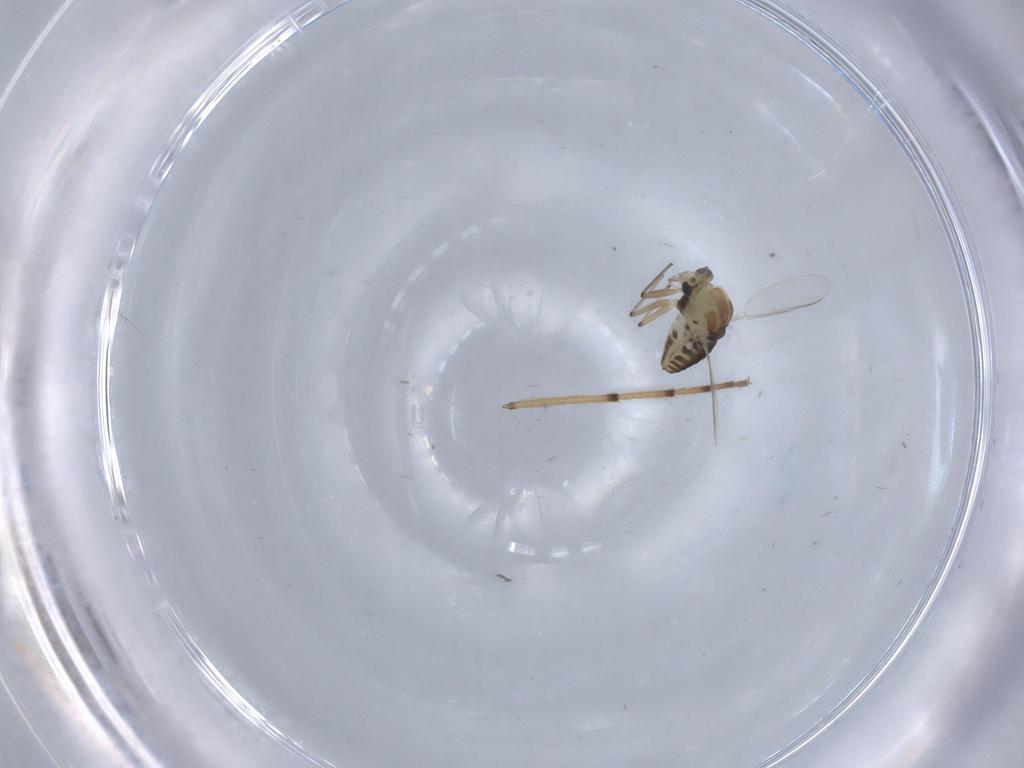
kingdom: Animalia
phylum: Arthropoda
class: Insecta
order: Diptera
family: Chironomidae
